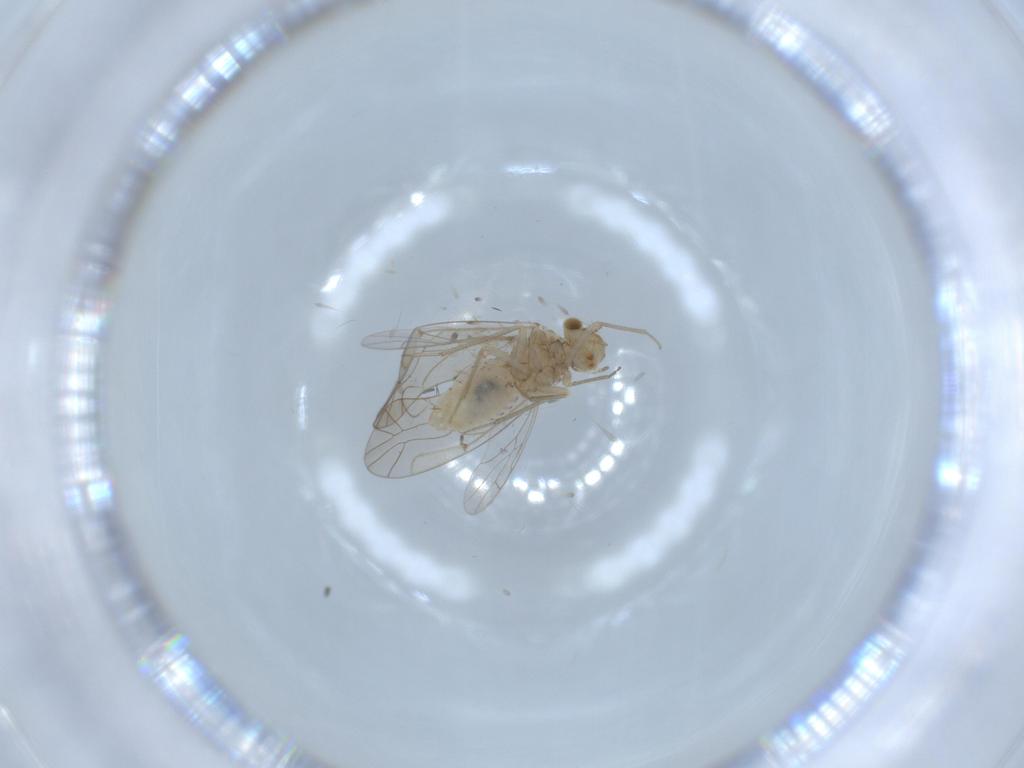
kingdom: Animalia
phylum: Arthropoda
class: Insecta
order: Psocodea
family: Lachesillidae
